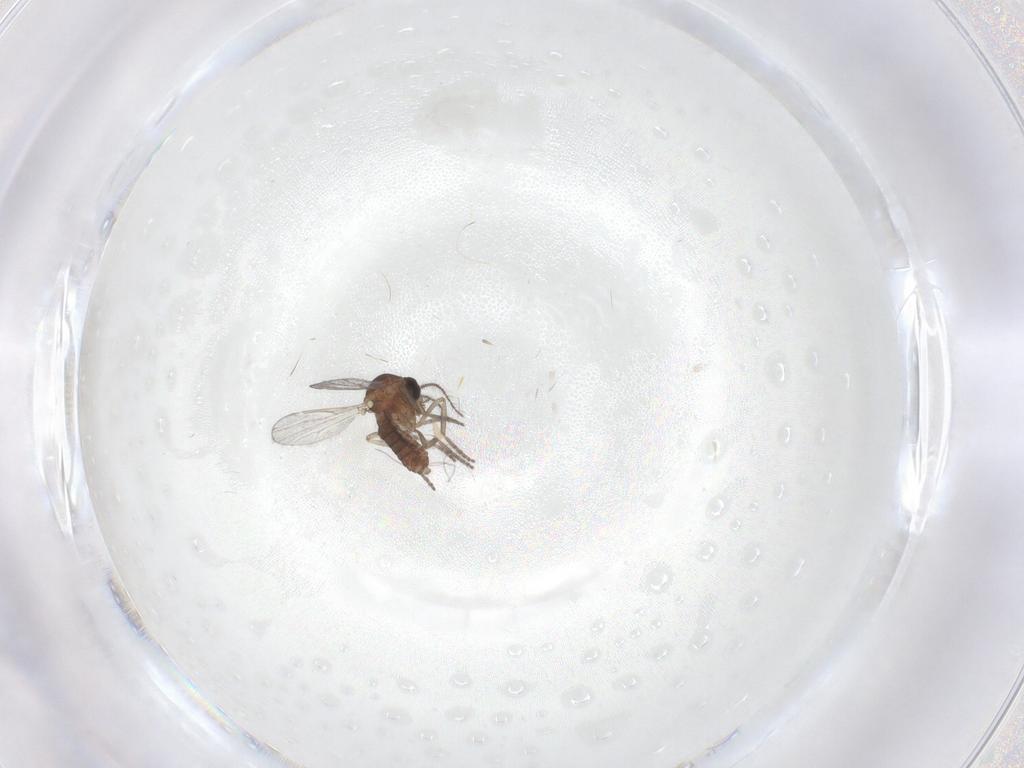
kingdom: Animalia
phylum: Arthropoda
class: Insecta
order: Diptera
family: Ceratopogonidae
